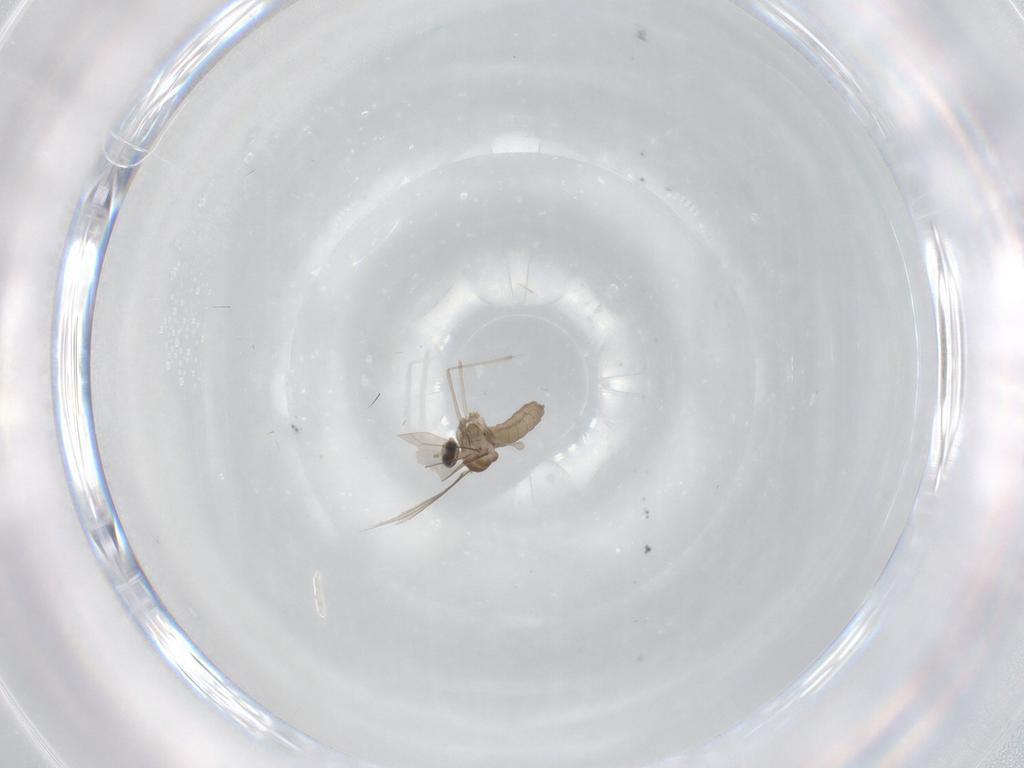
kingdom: Animalia
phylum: Arthropoda
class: Insecta
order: Diptera
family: Cecidomyiidae
